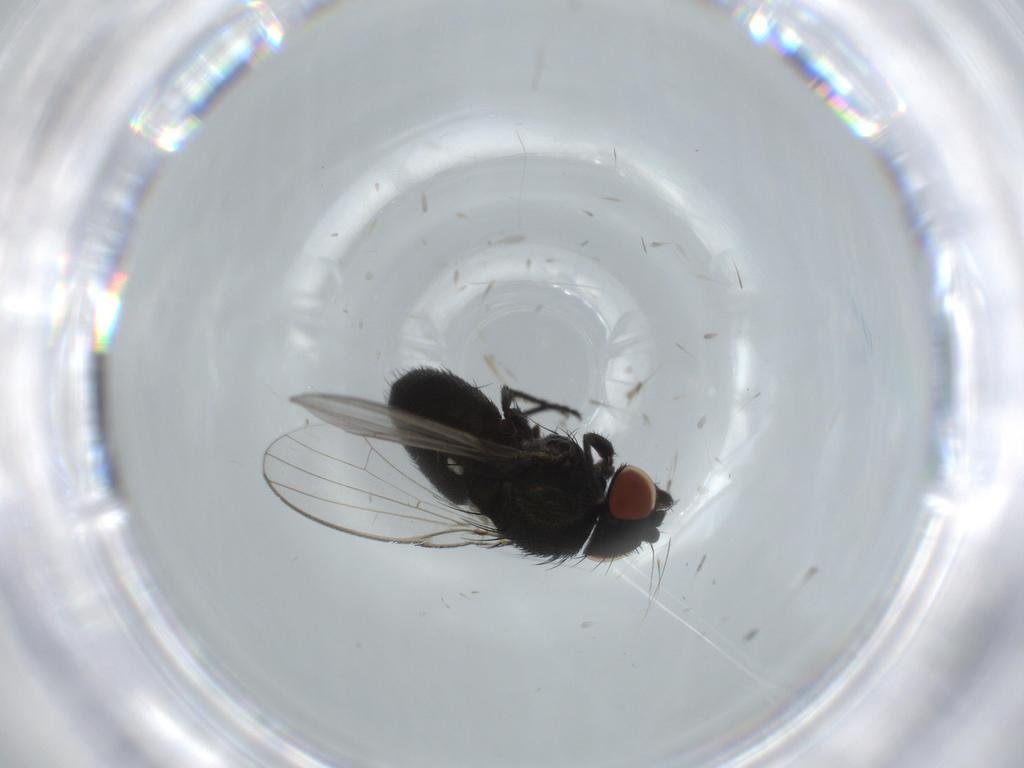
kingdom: Animalia
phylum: Arthropoda
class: Insecta
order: Diptera
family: Milichiidae
